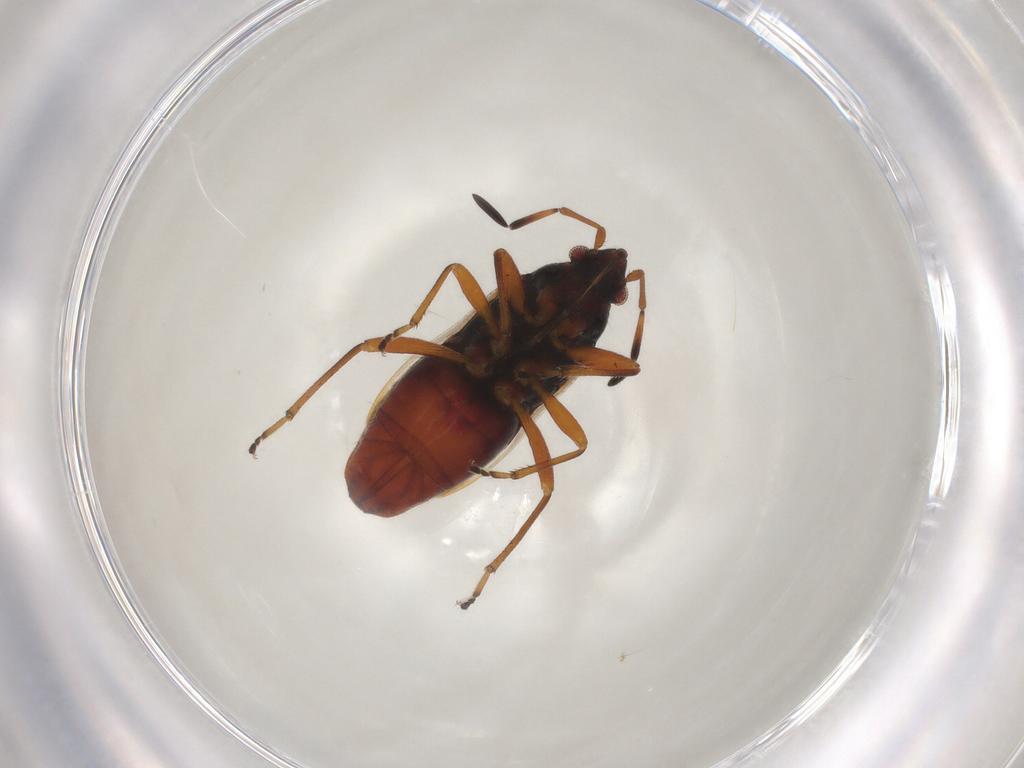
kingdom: Animalia
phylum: Arthropoda
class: Insecta
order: Hemiptera
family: Rhyparochromidae
